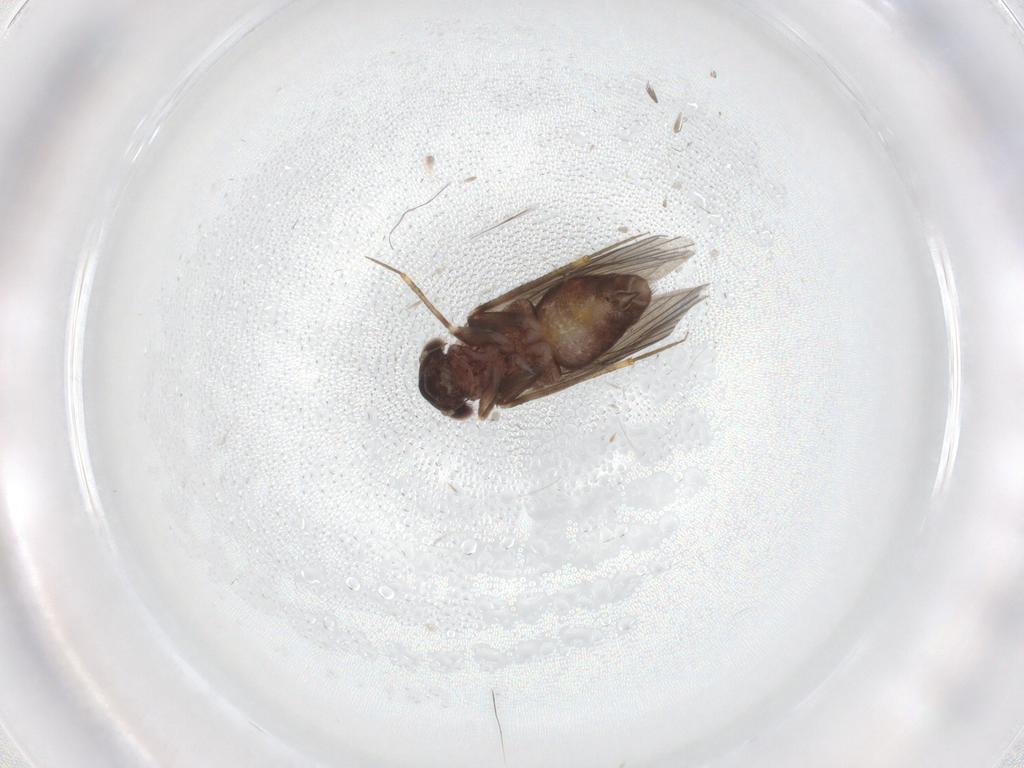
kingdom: Animalia
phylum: Arthropoda
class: Insecta
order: Psocodea
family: Lepidopsocidae
